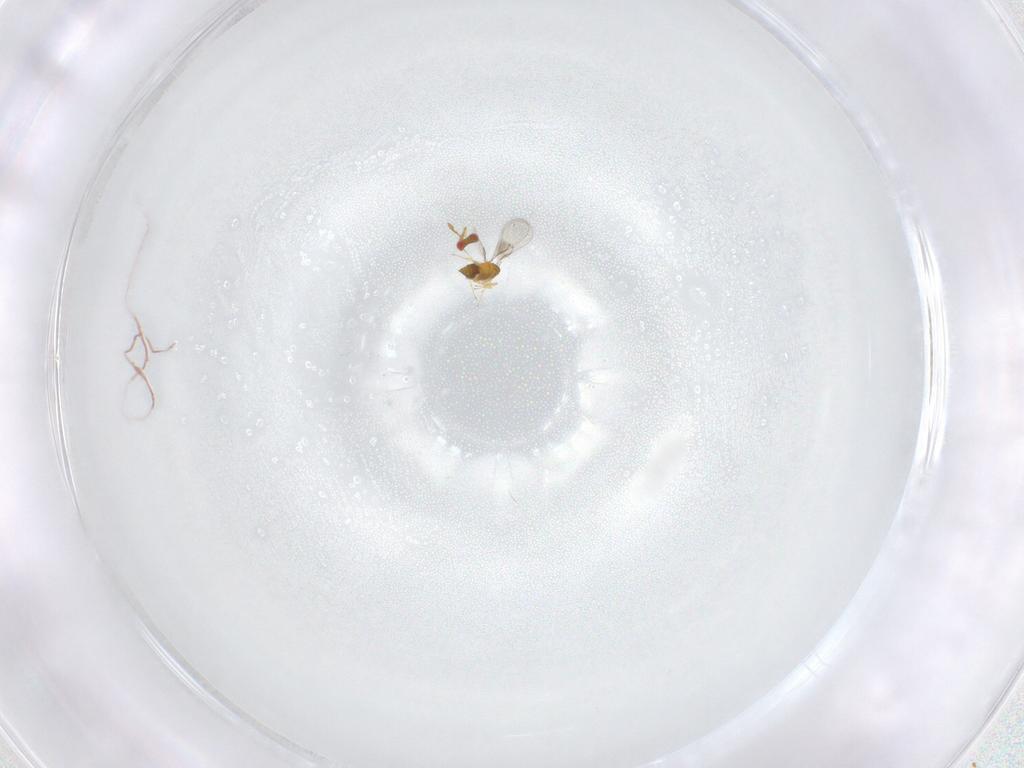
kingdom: Animalia
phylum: Arthropoda
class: Insecta
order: Hymenoptera
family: Trichogrammatidae
